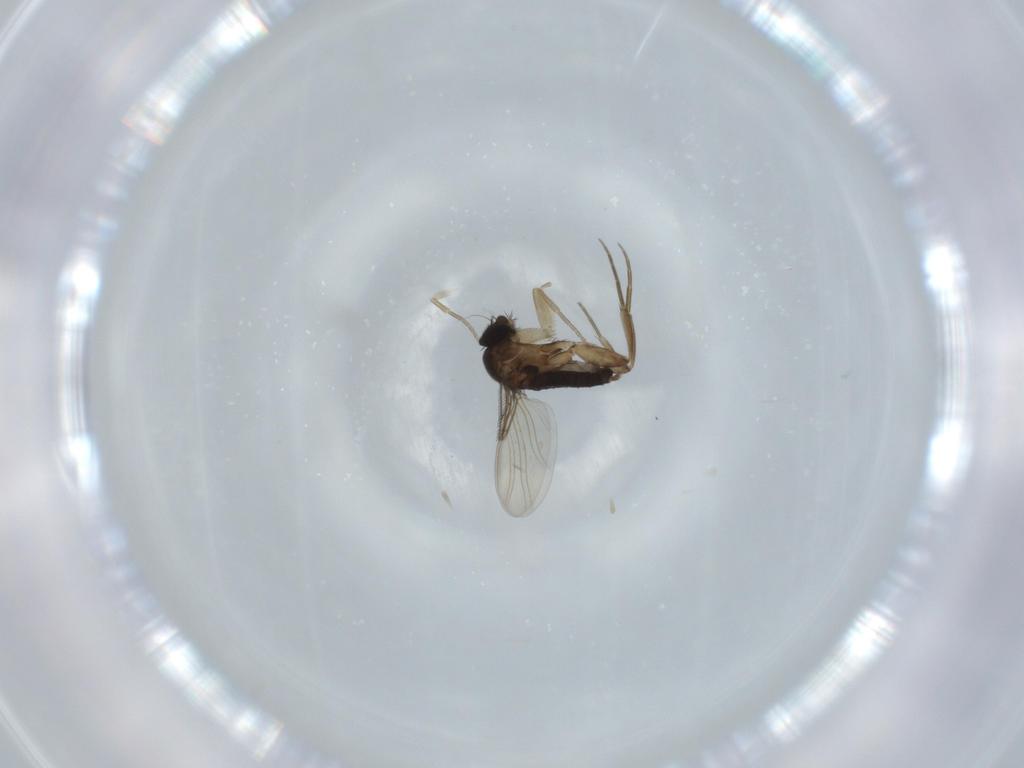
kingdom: Animalia
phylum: Arthropoda
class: Insecta
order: Diptera
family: Phoridae
